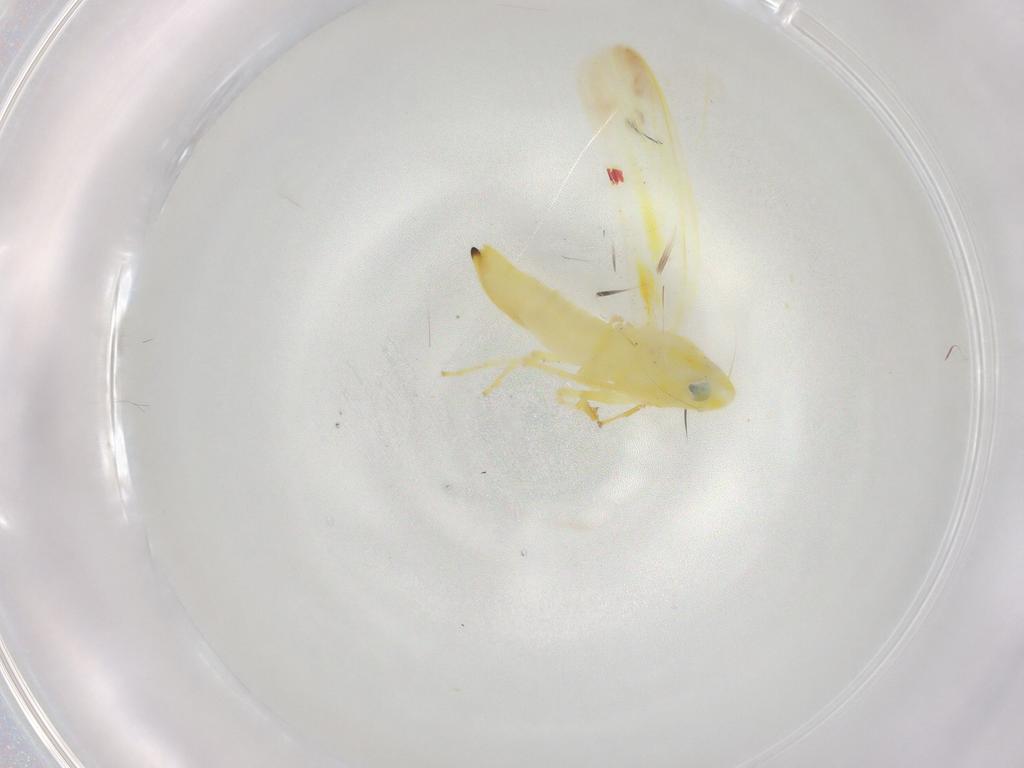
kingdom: Animalia
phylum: Arthropoda
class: Insecta
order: Hemiptera
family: Cicadellidae
